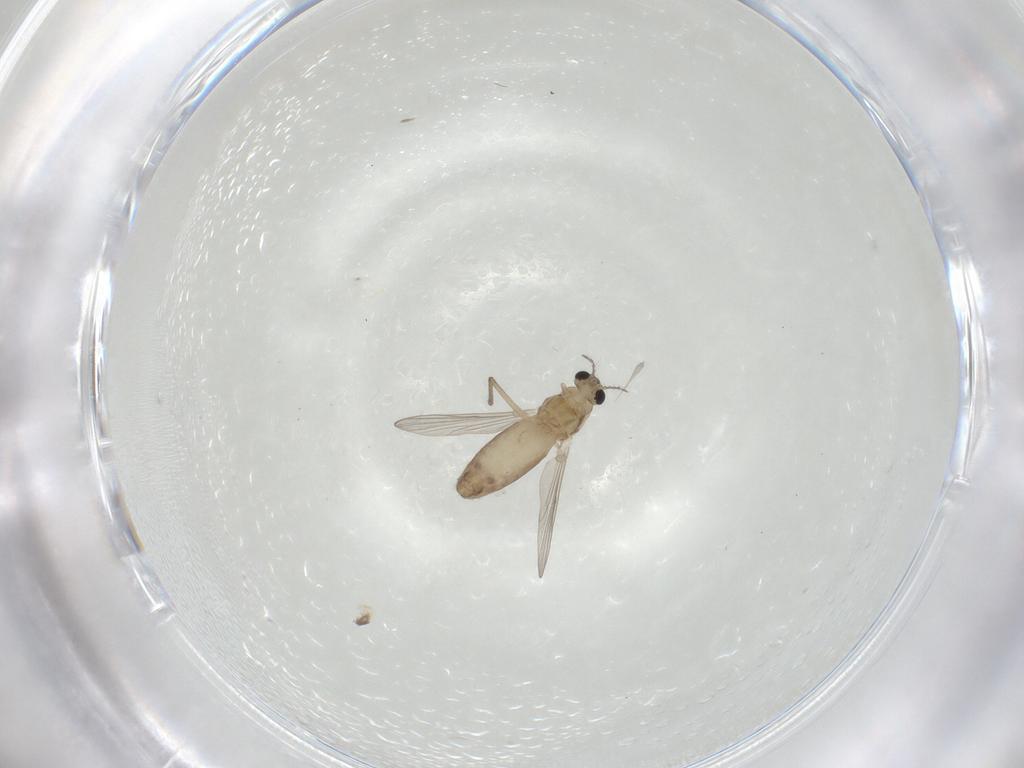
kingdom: Animalia
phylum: Arthropoda
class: Insecta
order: Diptera
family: Chironomidae
